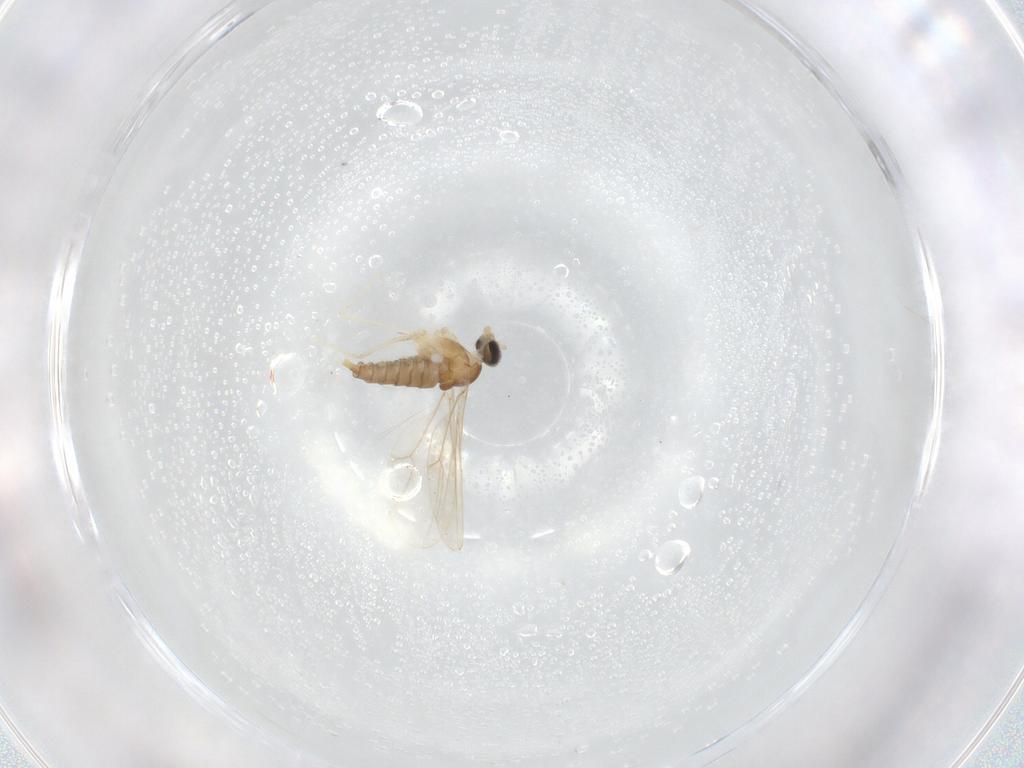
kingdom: Animalia
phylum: Arthropoda
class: Insecta
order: Diptera
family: Cecidomyiidae
